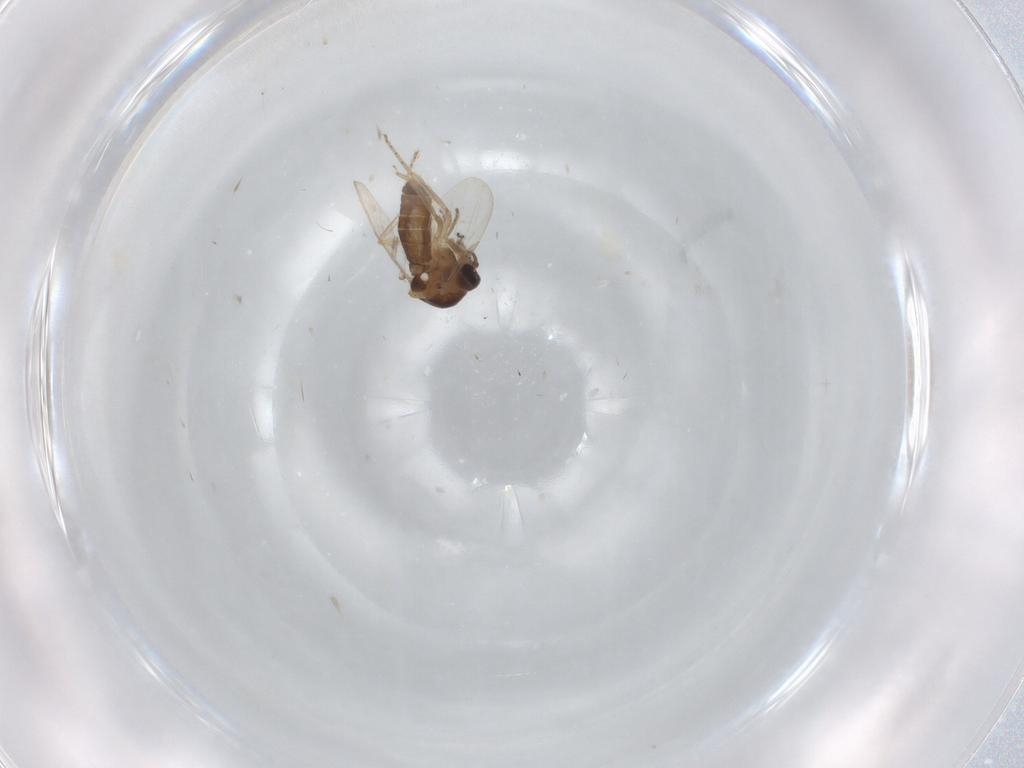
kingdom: Animalia
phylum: Arthropoda
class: Insecta
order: Diptera
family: Ceratopogonidae
